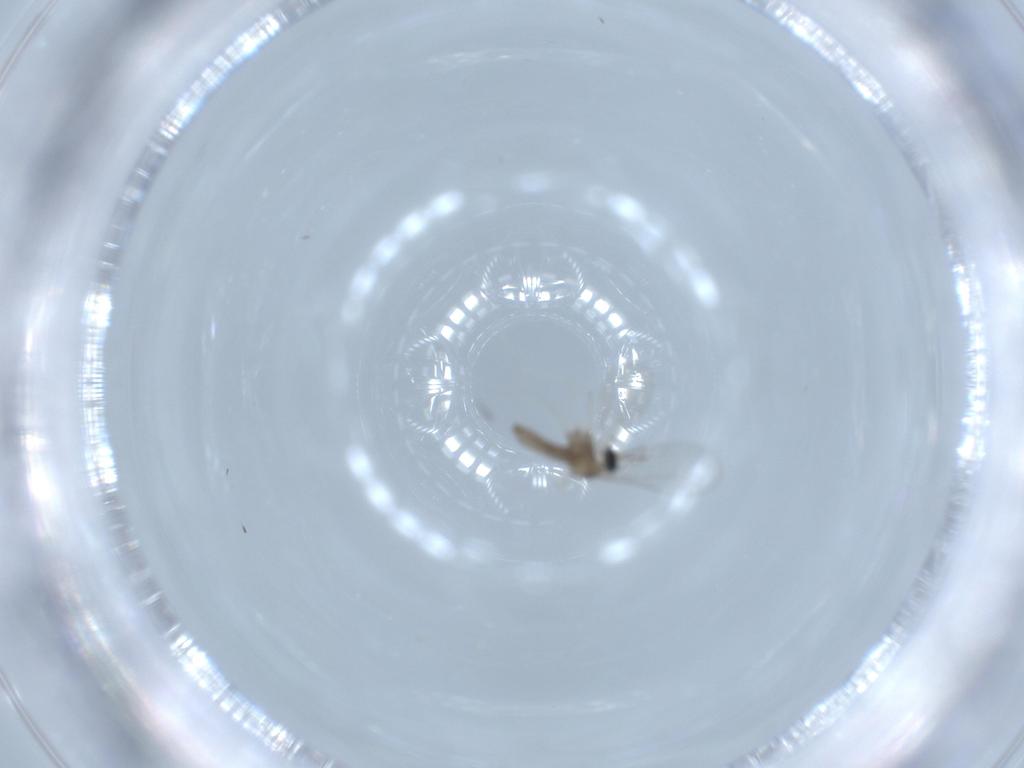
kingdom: Animalia
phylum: Arthropoda
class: Insecta
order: Diptera
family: Cecidomyiidae
